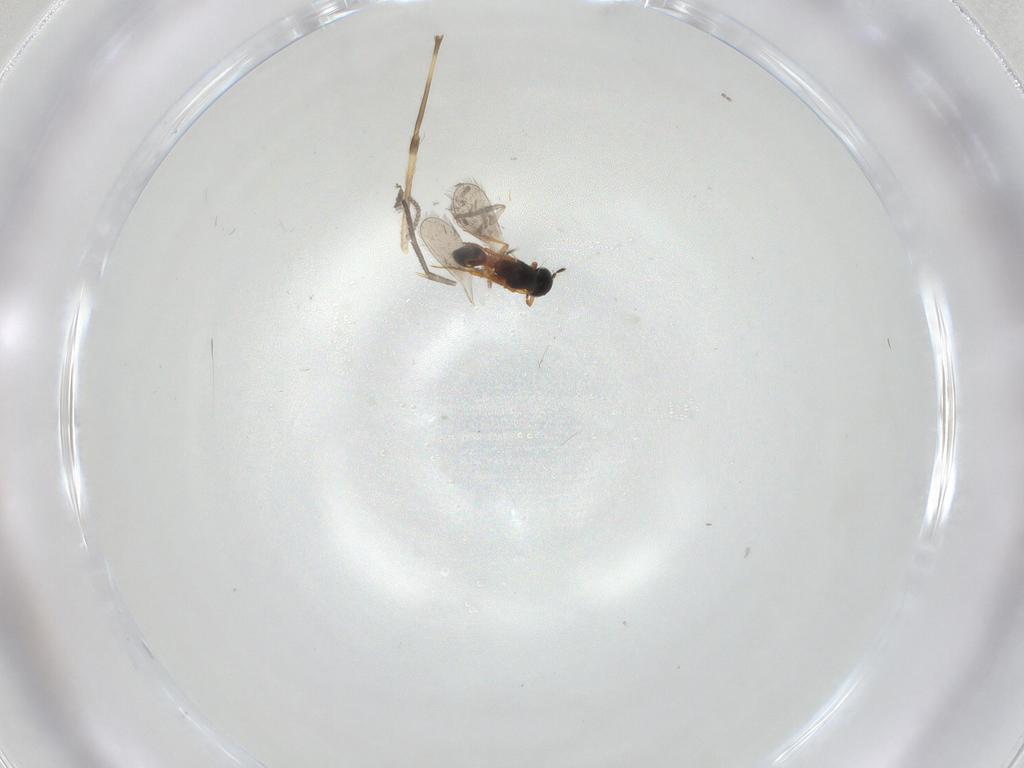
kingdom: Animalia
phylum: Arthropoda
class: Insecta
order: Hymenoptera
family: Platygastridae
